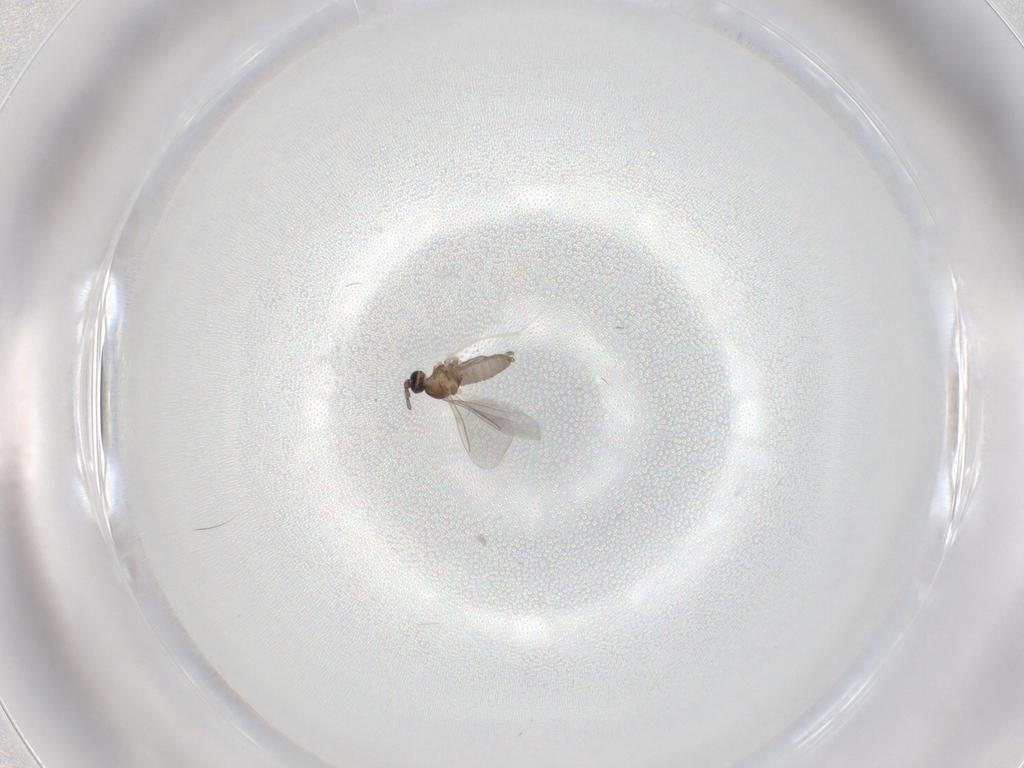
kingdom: Animalia
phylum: Arthropoda
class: Insecta
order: Diptera
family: Cecidomyiidae
